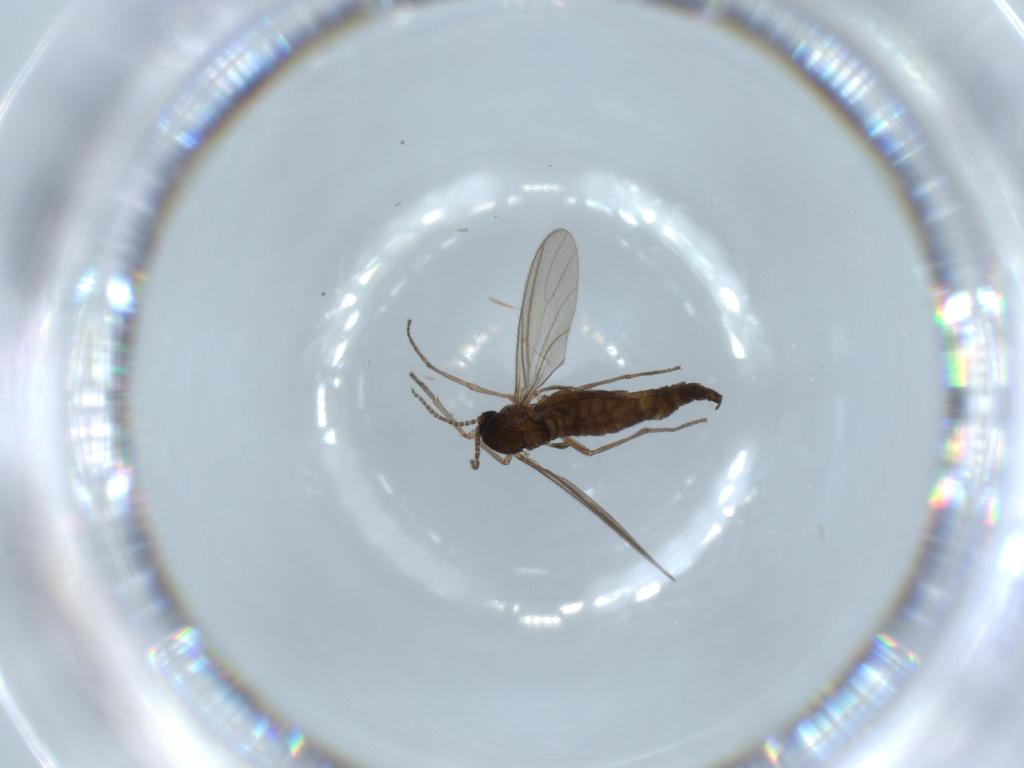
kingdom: Animalia
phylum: Arthropoda
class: Insecta
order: Diptera
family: Sciaridae
